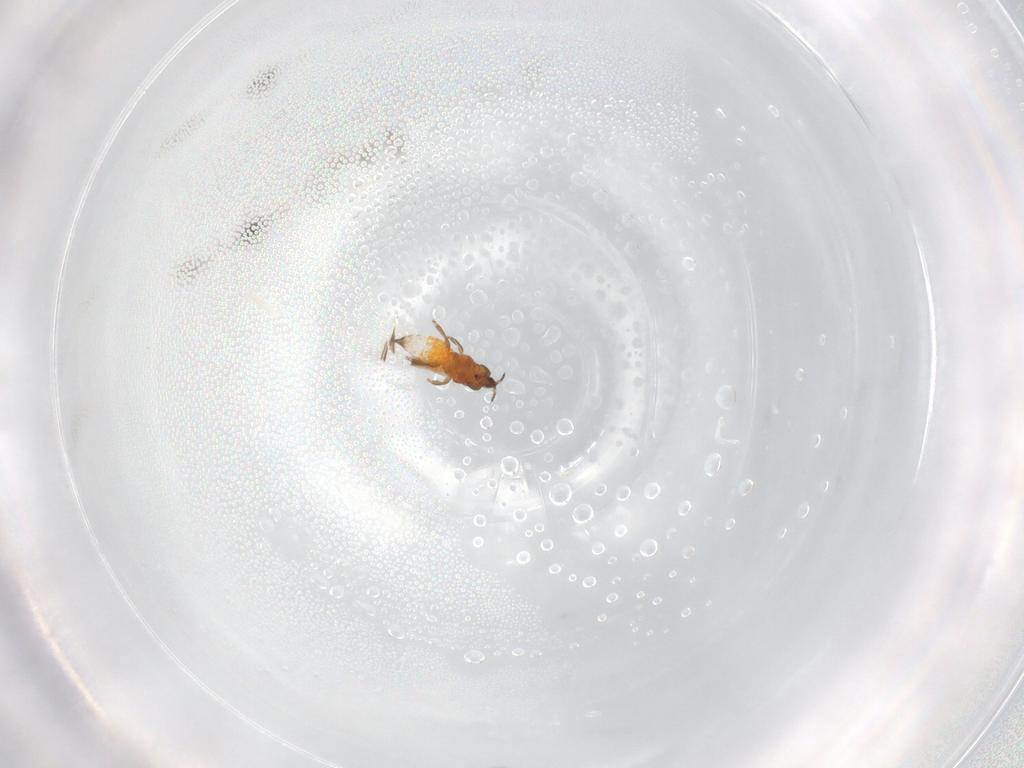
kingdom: Animalia
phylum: Arthropoda
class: Insecta
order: Thysanoptera
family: Thripidae
